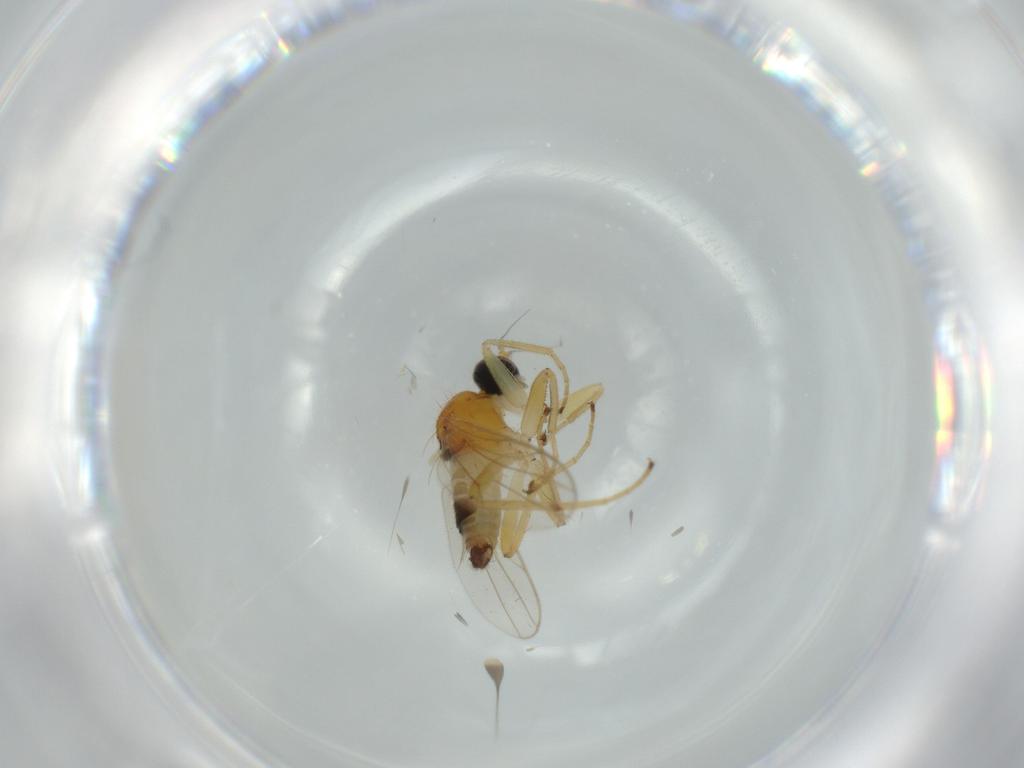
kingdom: Animalia
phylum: Arthropoda
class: Insecta
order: Diptera
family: Hybotidae
